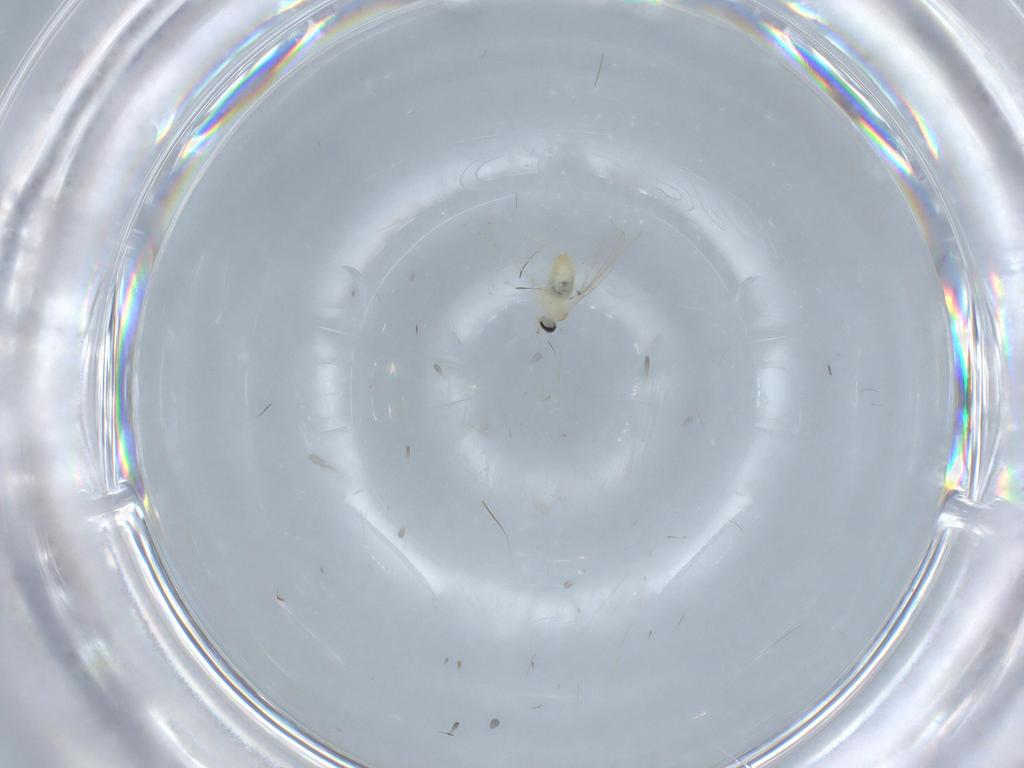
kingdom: Animalia
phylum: Arthropoda
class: Insecta
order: Diptera
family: Anthomyiidae
